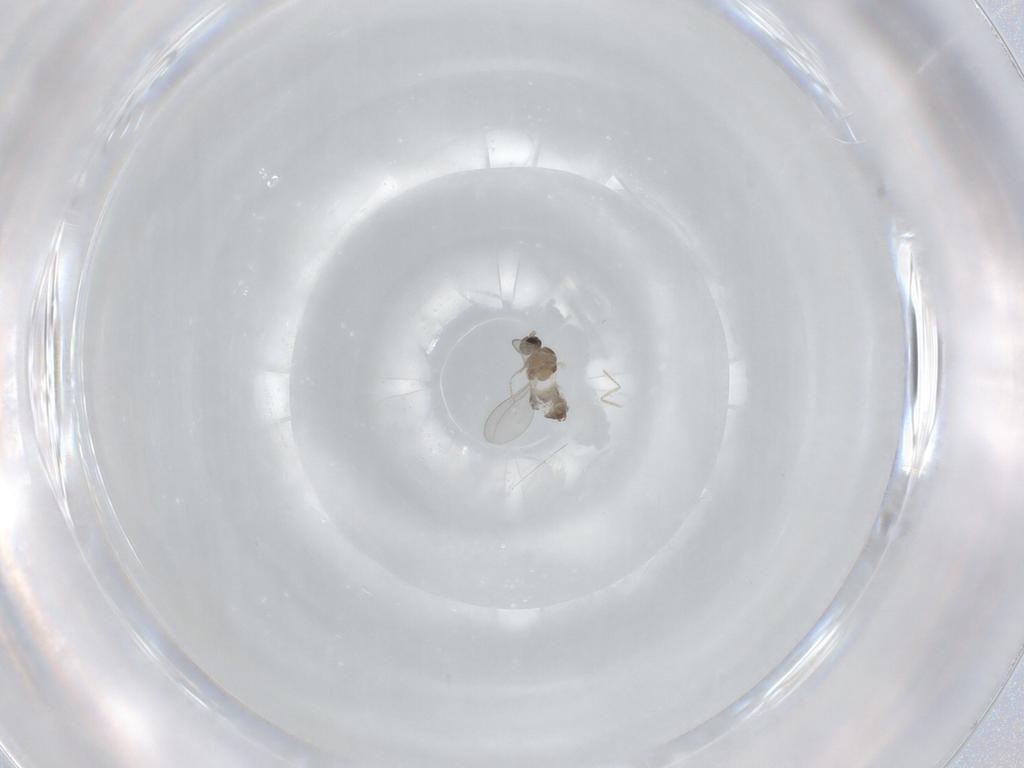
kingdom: Animalia
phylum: Arthropoda
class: Insecta
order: Diptera
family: Cecidomyiidae
